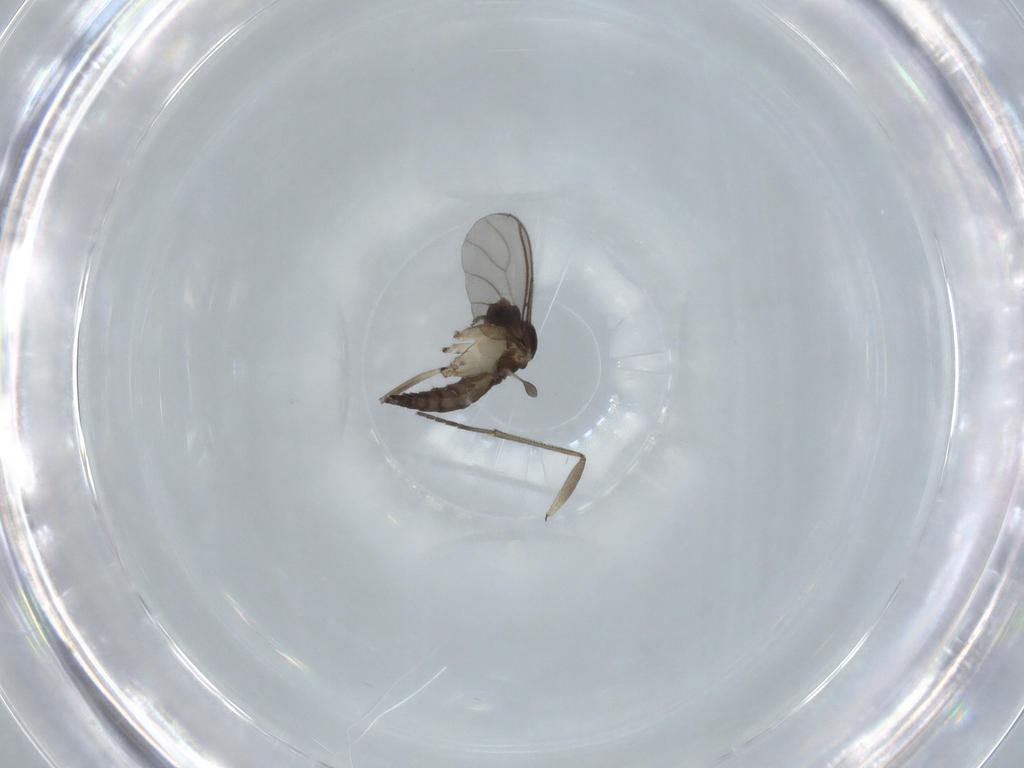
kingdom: Animalia
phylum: Arthropoda
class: Insecta
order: Diptera
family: Sciaridae
